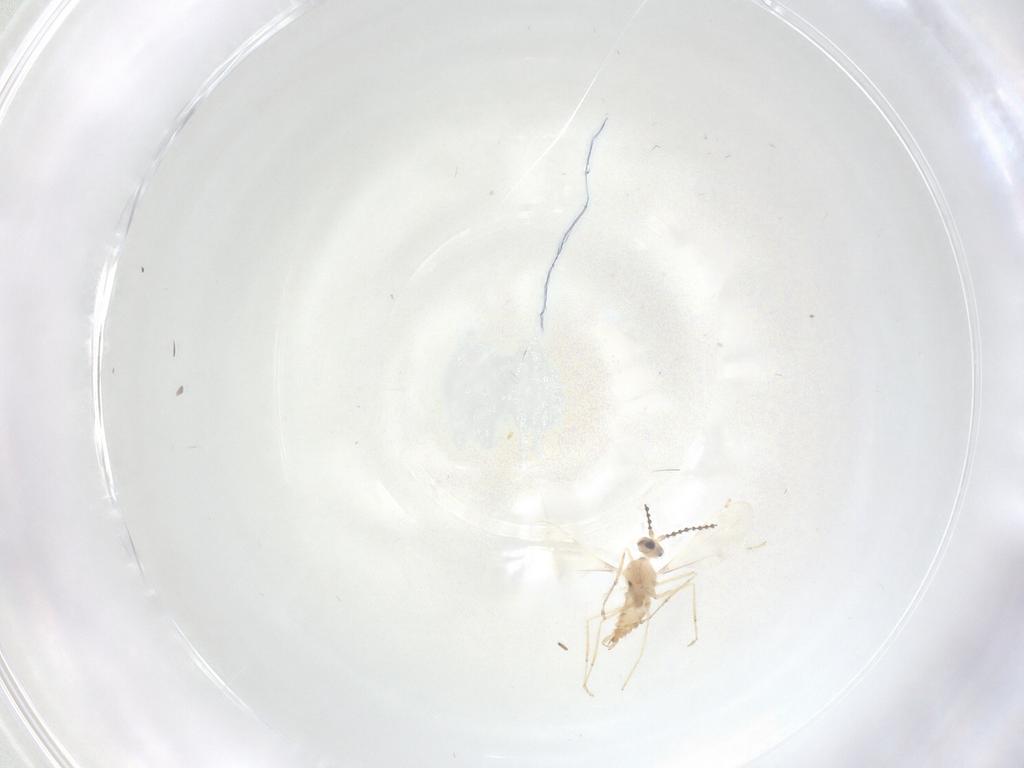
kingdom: Animalia
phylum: Arthropoda
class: Insecta
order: Diptera
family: Cecidomyiidae
